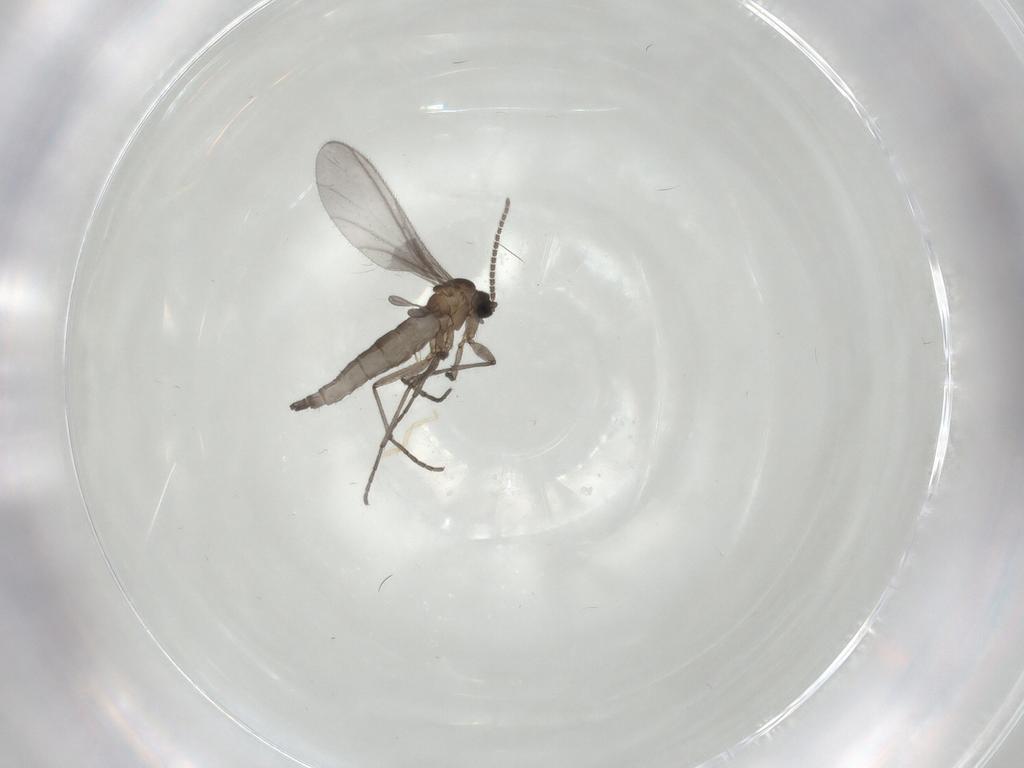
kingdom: Animalia
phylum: Arthropoda
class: Insecta
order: Diptera
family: Sciaridae
